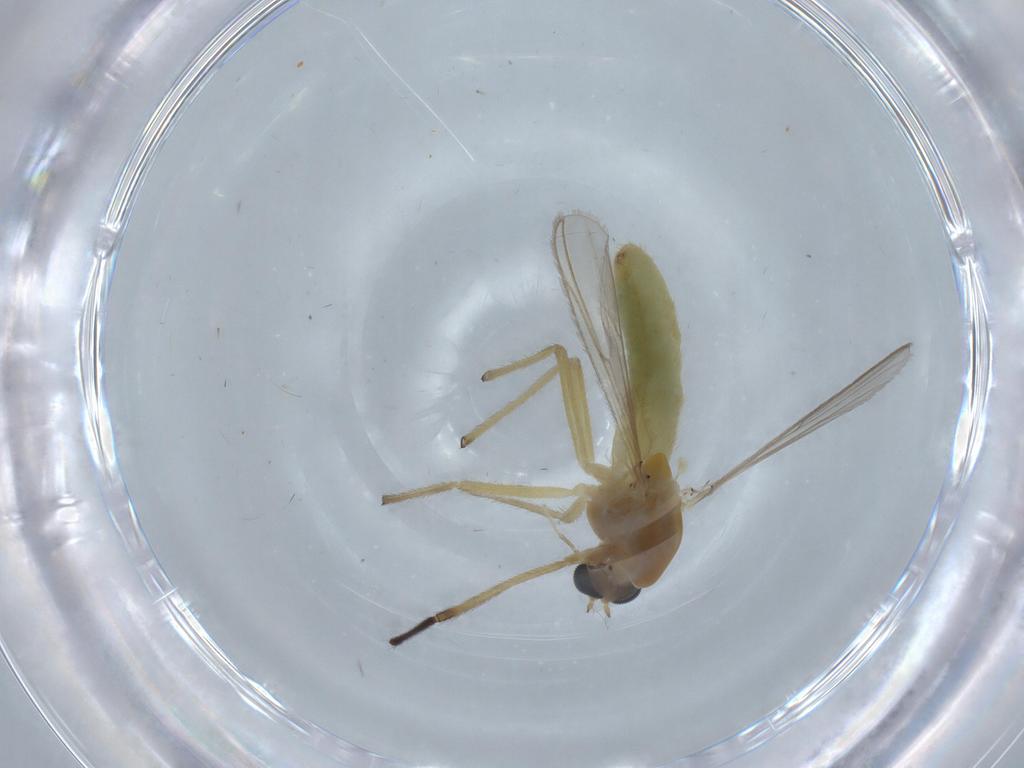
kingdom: Animalia
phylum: Arthropoda
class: Insecta
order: Diptera
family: Chironomidae
